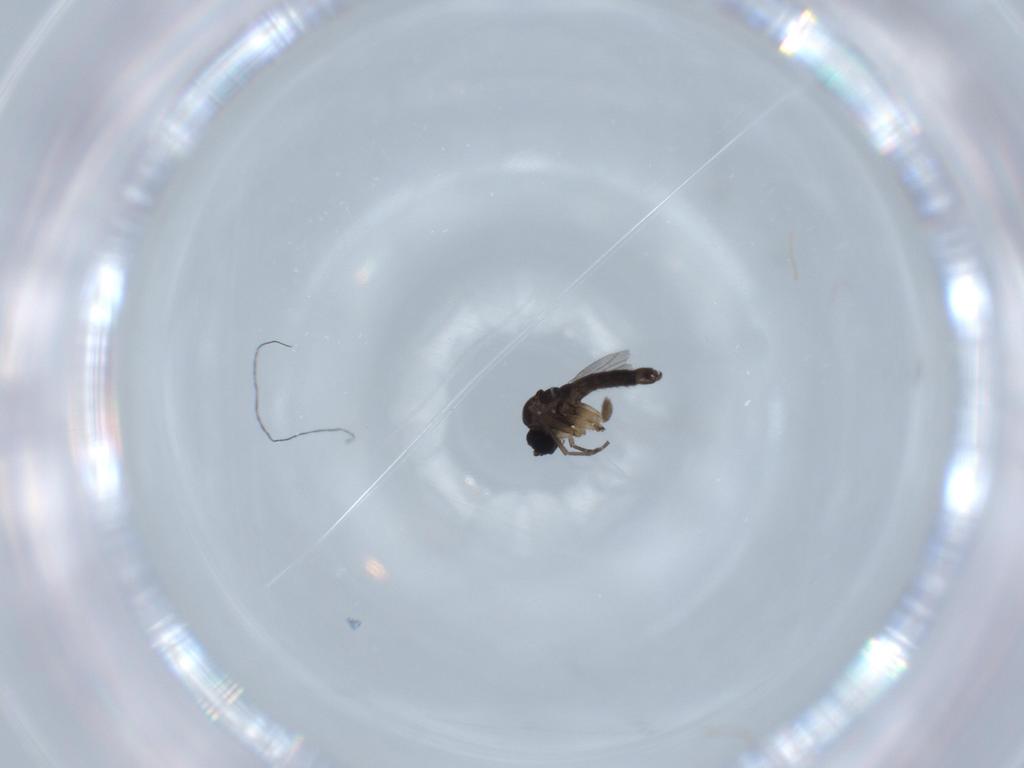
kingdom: Animalia
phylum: Arthropoda
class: Insecta
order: Diptera
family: Sciaridae
